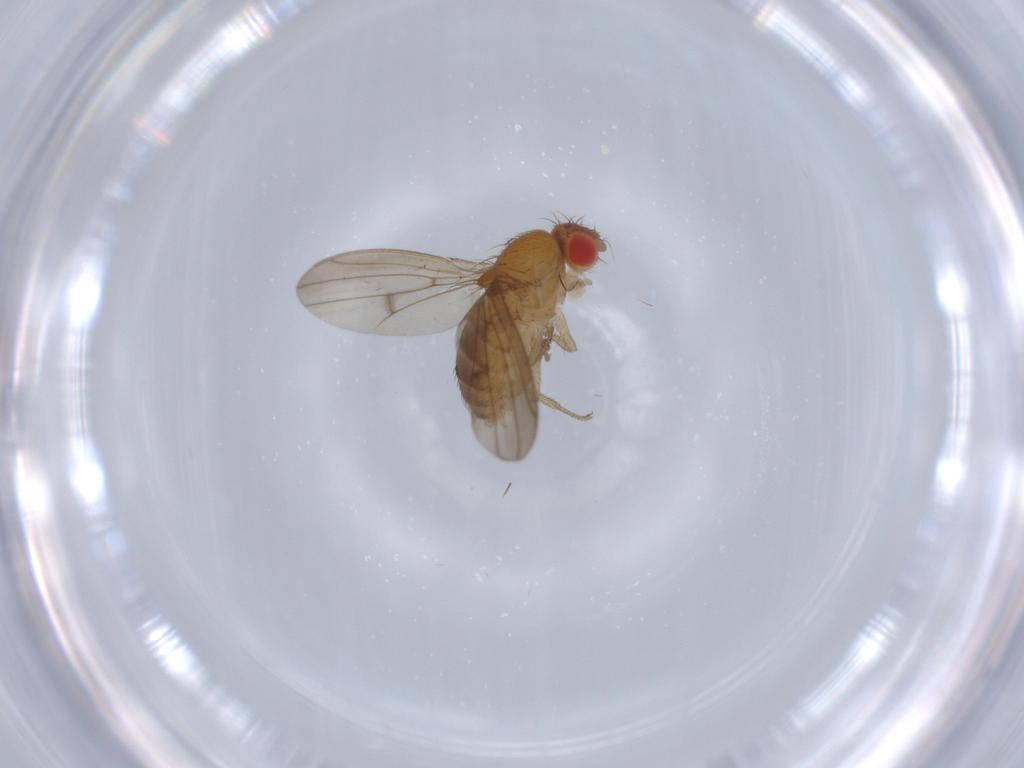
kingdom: Animalia
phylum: Arthropoda
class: Insecta
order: Diptera
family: Drosophilidae
